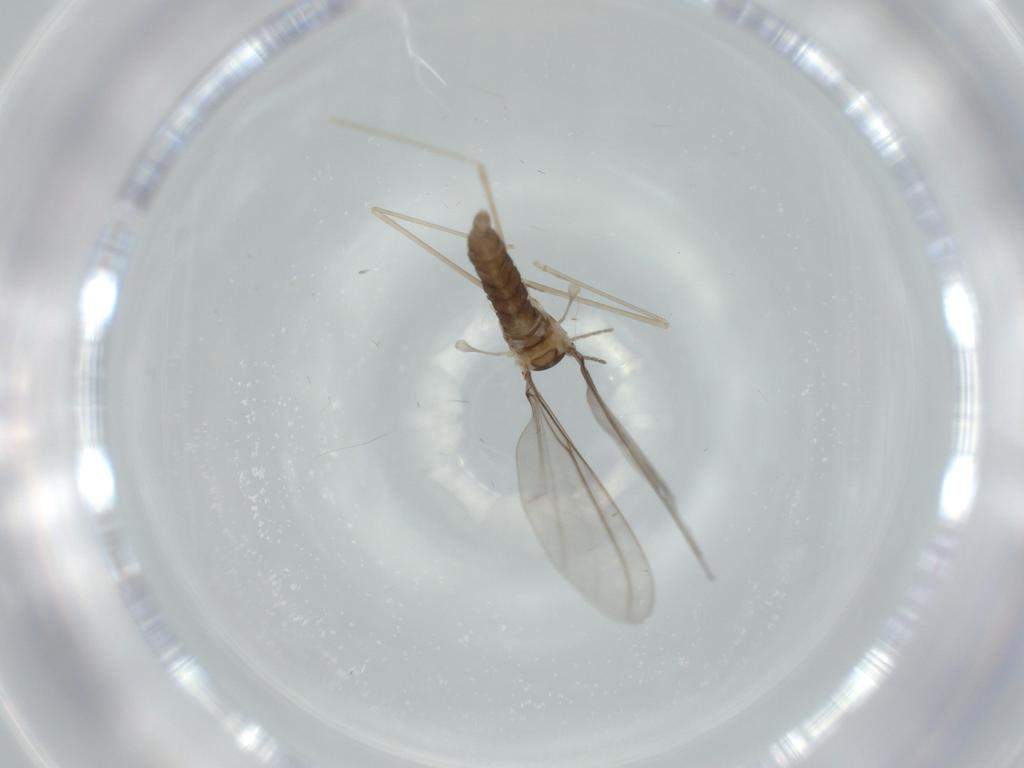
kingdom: Animalia
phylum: Arthropoda
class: Insecta
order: Diptera
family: Cecidomyiidae
